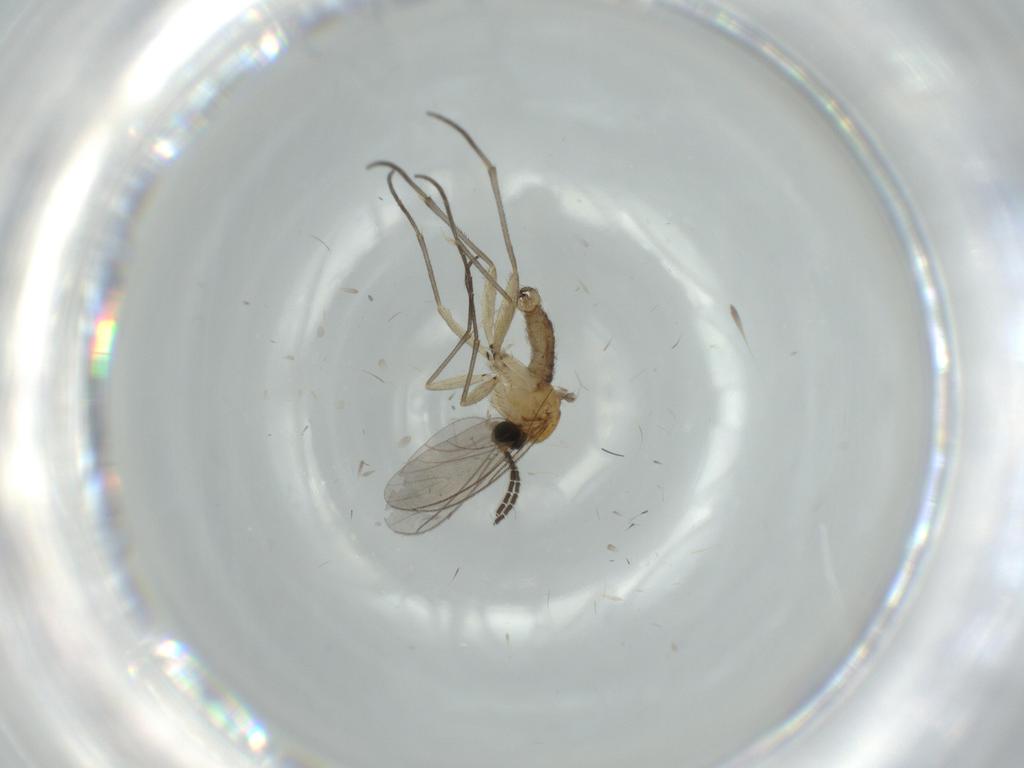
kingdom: Animalia
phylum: Arthropoda
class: Insecta
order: Diptera
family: Sciaridae
